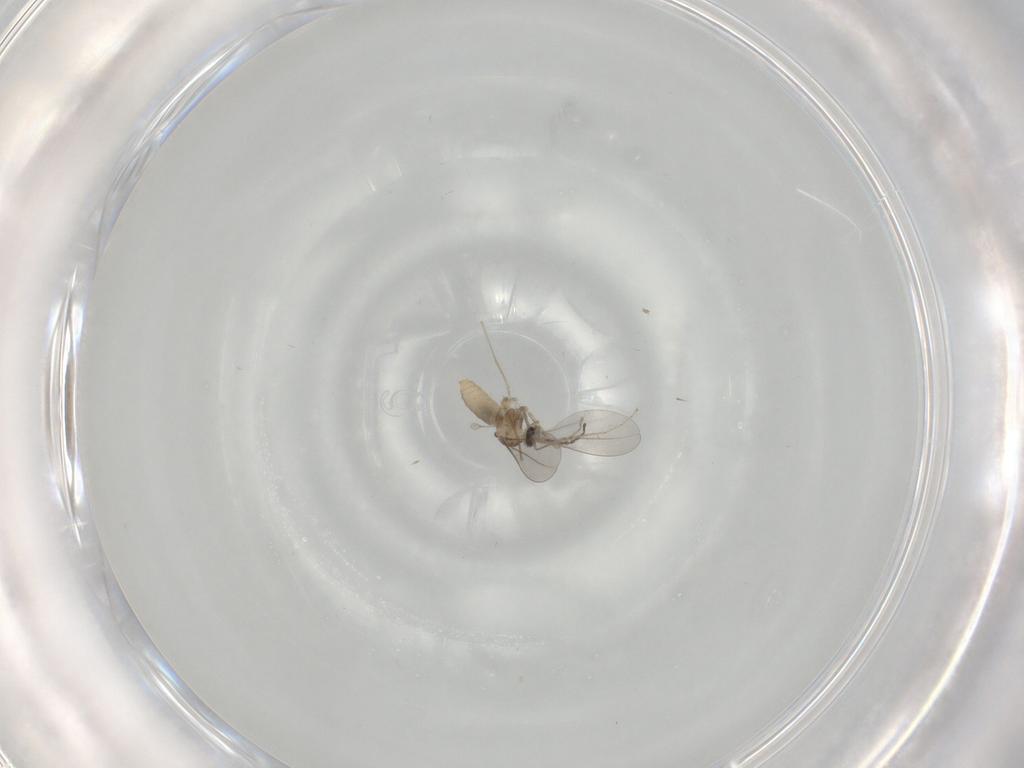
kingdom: Animalia
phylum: Arthropoda
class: Insecta
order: Diptera
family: Cecidomyiidae
